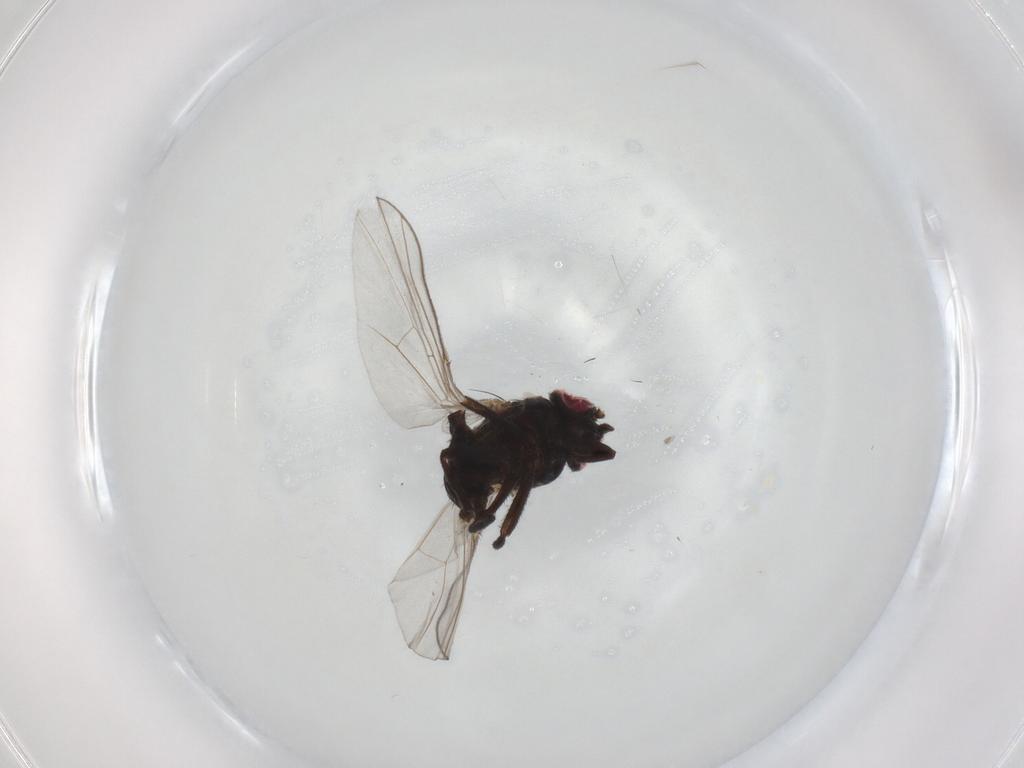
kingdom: Animalia
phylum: Arthropoda
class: Insecta
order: Diptera
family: Agromyzidae
